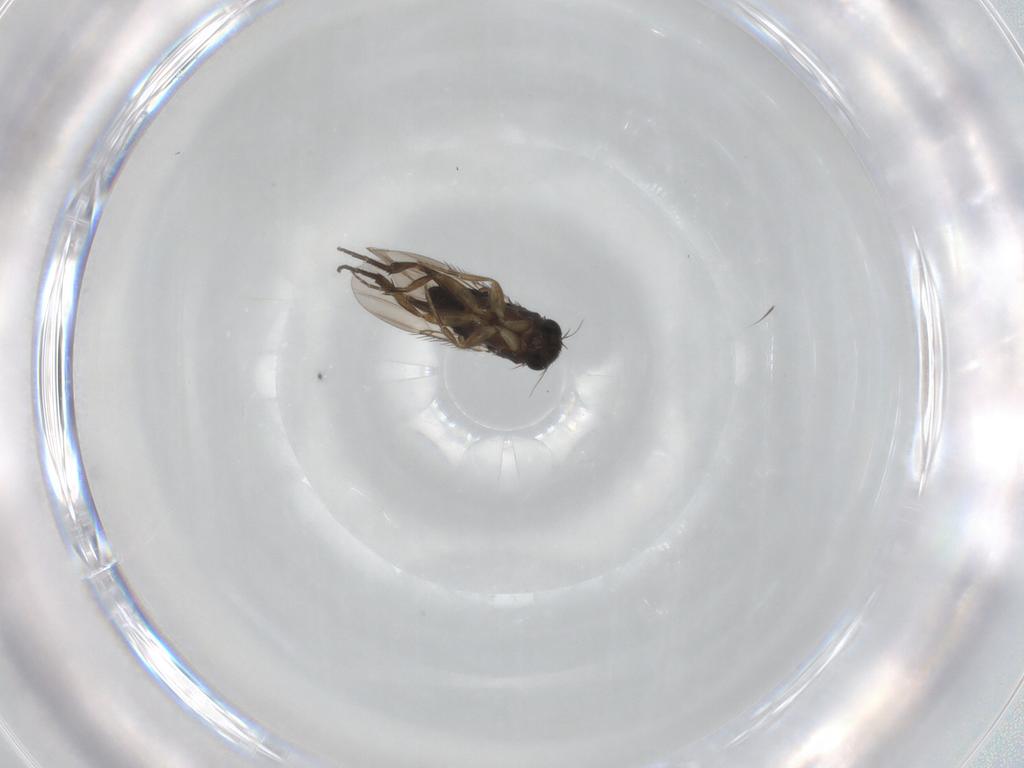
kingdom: Animalia
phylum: Arthropoda
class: Insecta
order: Diptera
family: Phoridae
